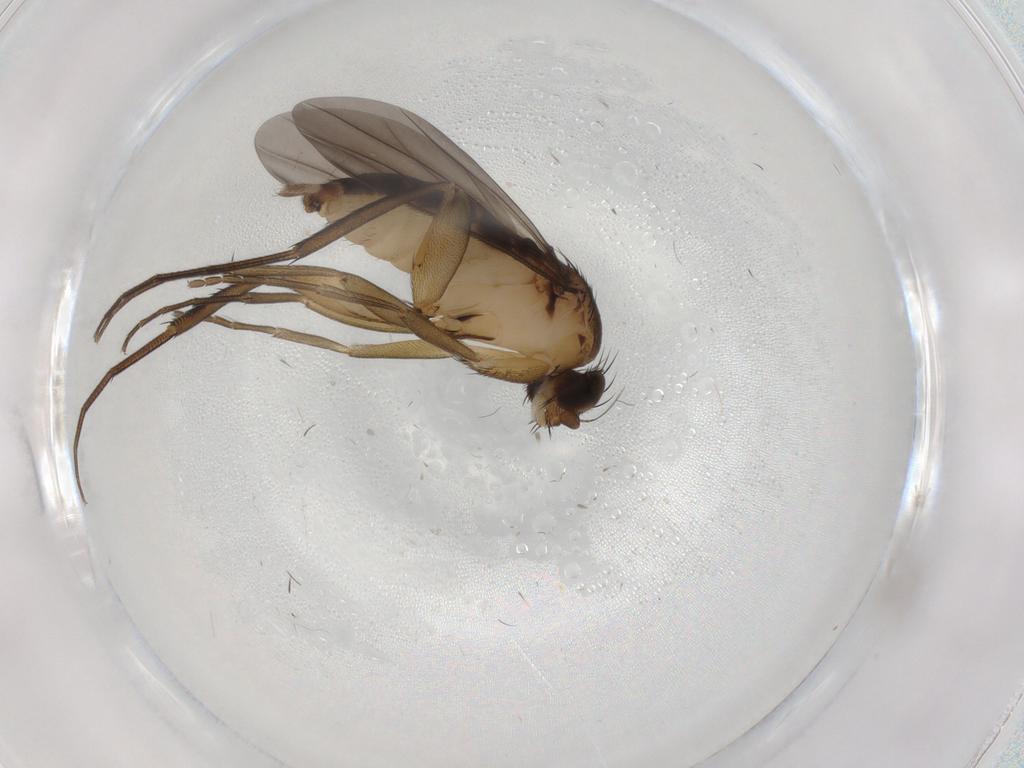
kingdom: Animalia
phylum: Arthropoda
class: Insecta
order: Diptera
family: Phoridae
